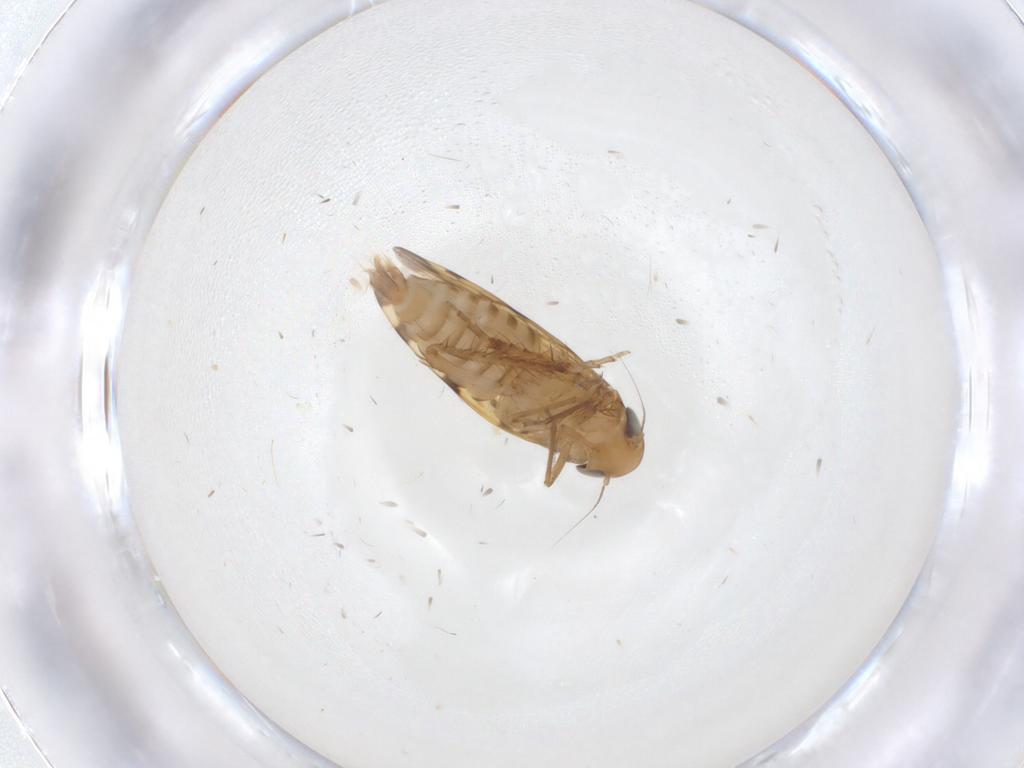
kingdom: Animalia
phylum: Arthropoda
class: Insecta
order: Hemiptera
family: Cicadellidae
